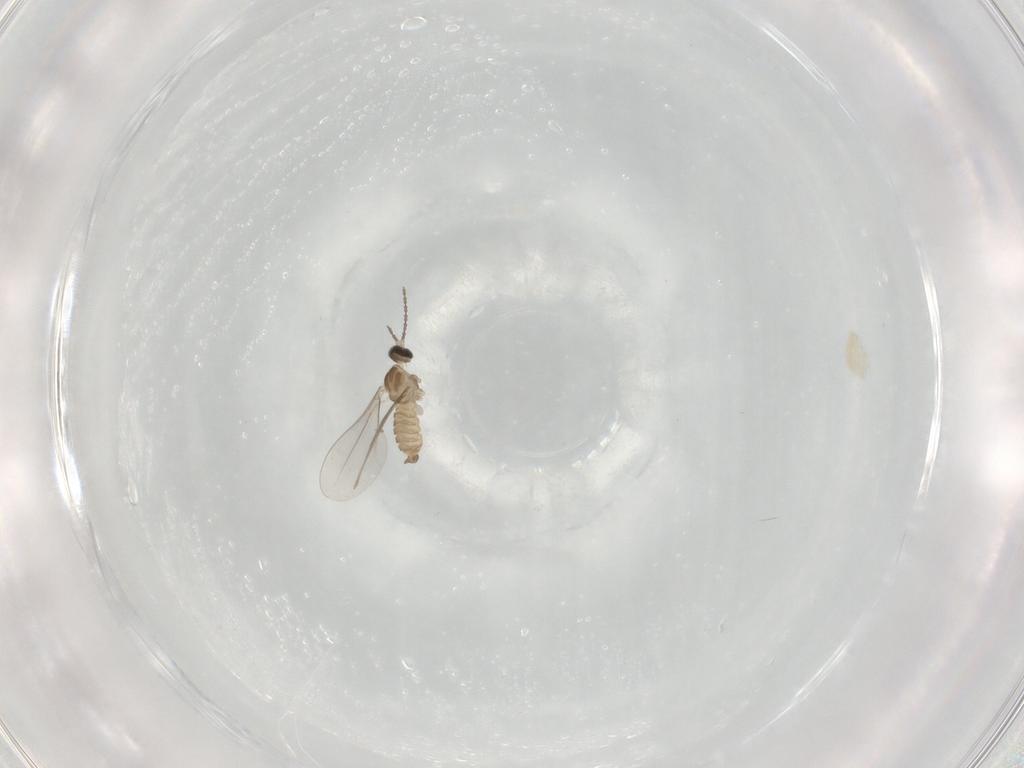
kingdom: Animalia
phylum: Arthropoda
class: Insecta
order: Diptera
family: Cecidomyiidae
